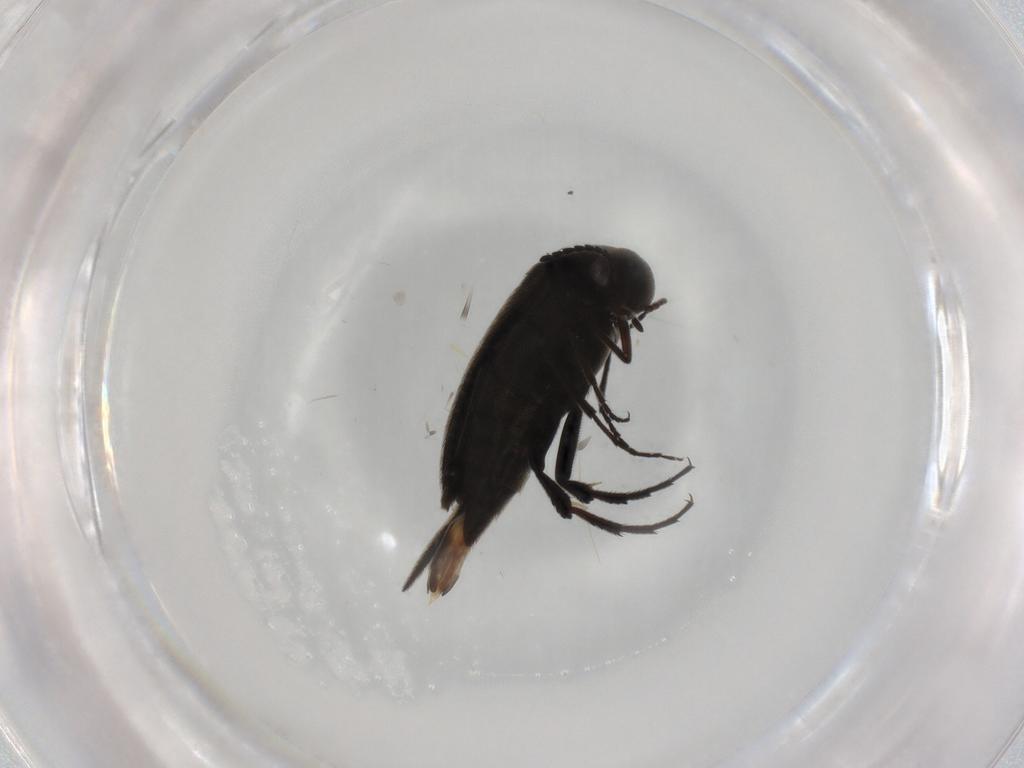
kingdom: Animalia
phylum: Arthropoda
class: Insecta
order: Coleoptera
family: Mordellidae
